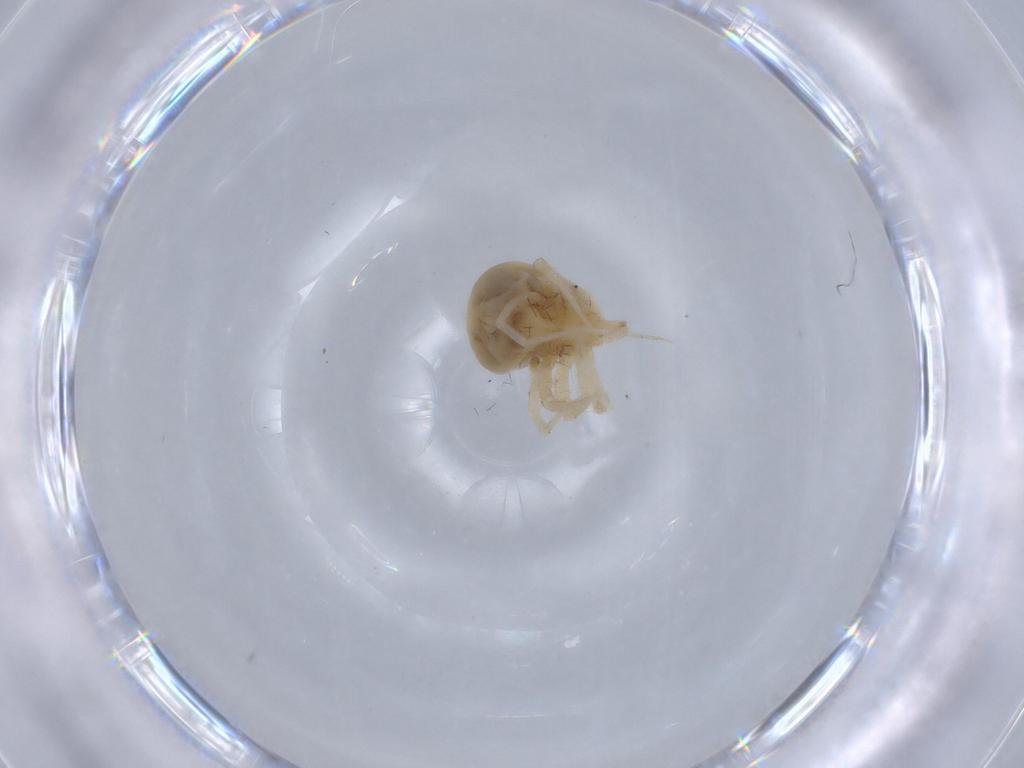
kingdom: Animalia
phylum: Arthropoda
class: Arachnida
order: Trombidiformes
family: Anystidae
